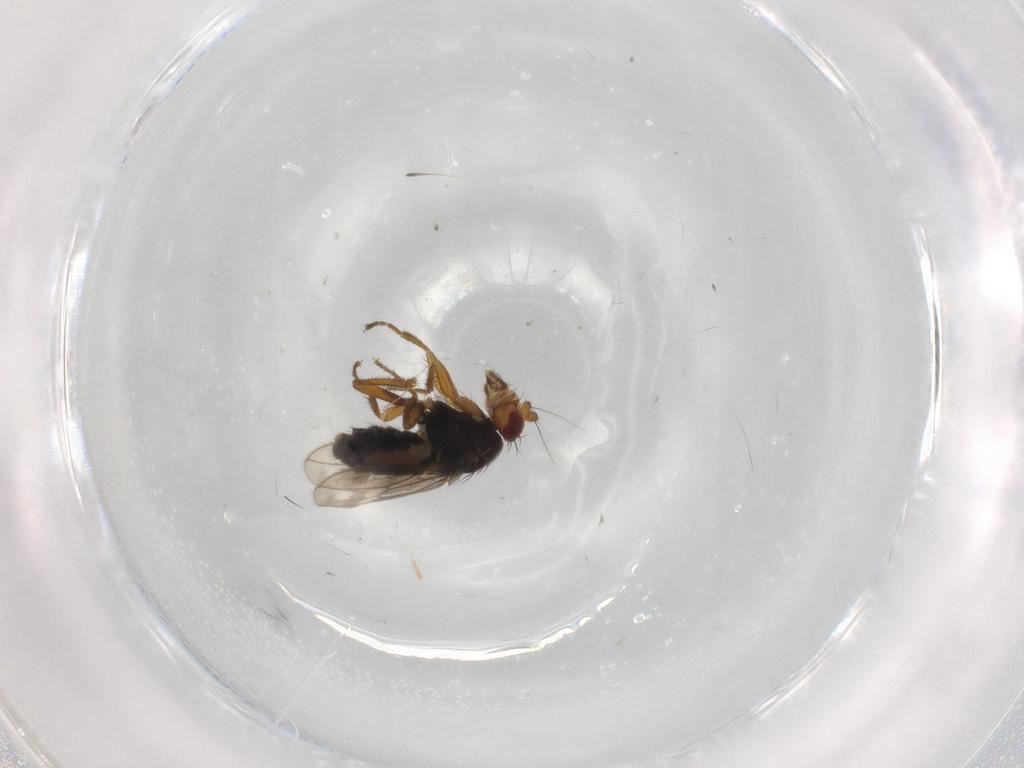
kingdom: Animalia
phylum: Arthropoda
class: Insecta
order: Diptera
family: Sphaeroceridae
